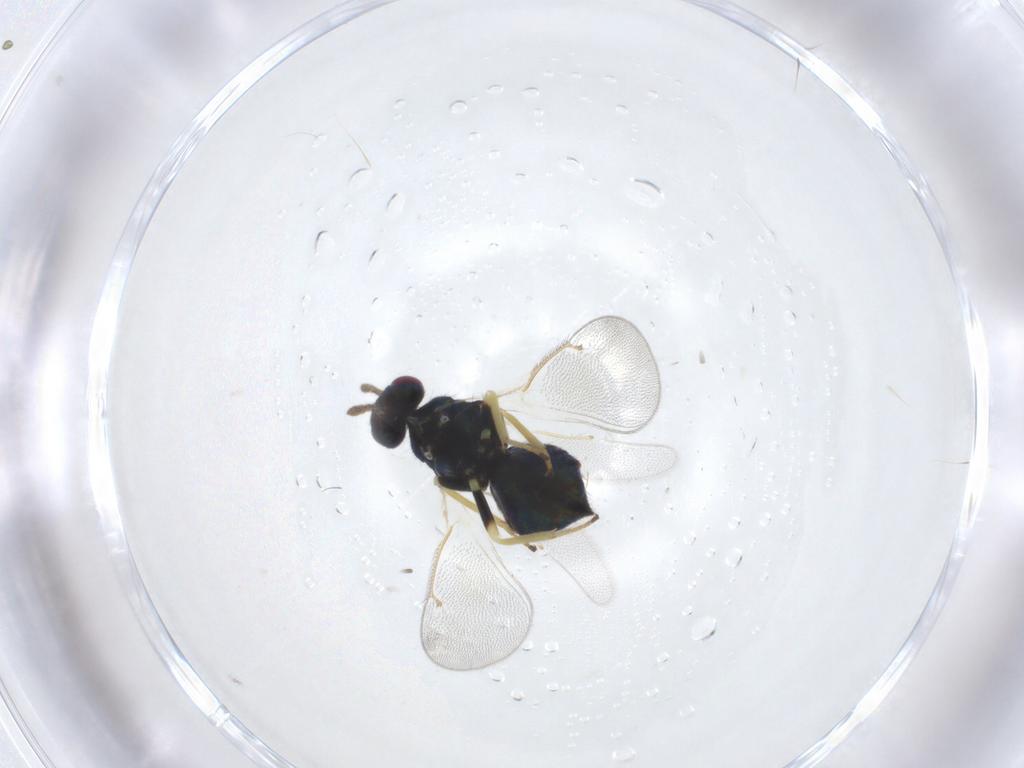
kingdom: Animalia
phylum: Arthropoda
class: Insecta
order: Hymenoptera
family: Eulophidae
